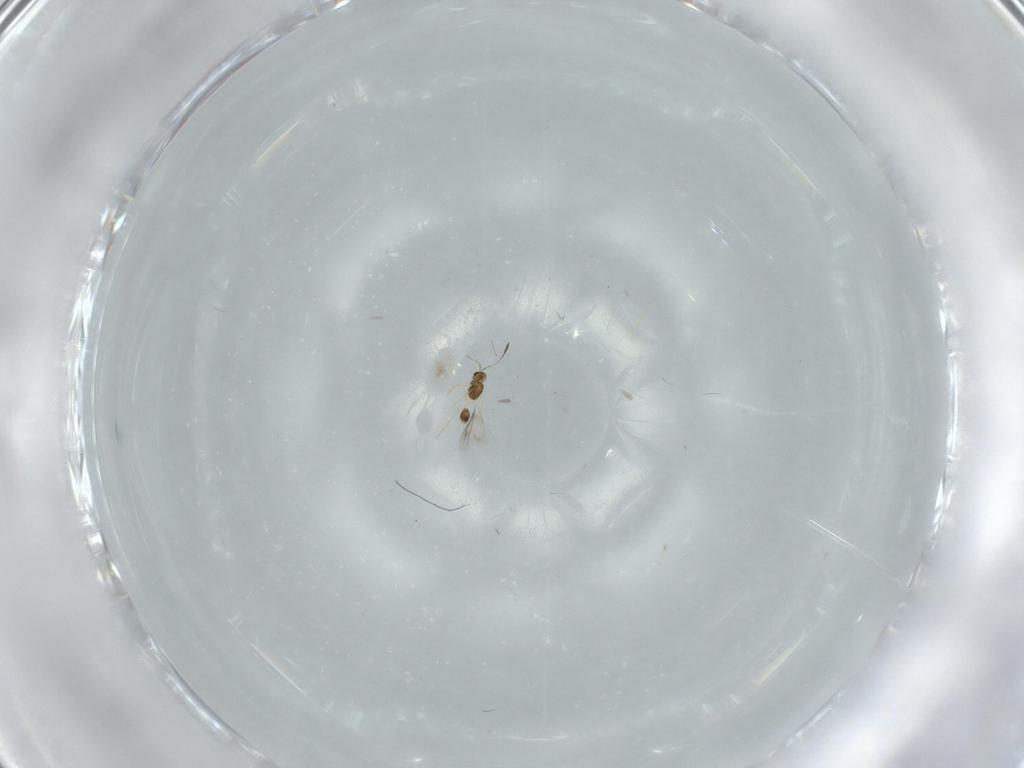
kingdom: Animalia
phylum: Arthropoda
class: Insecta
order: Hymenoptera
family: Mymarommatidae
